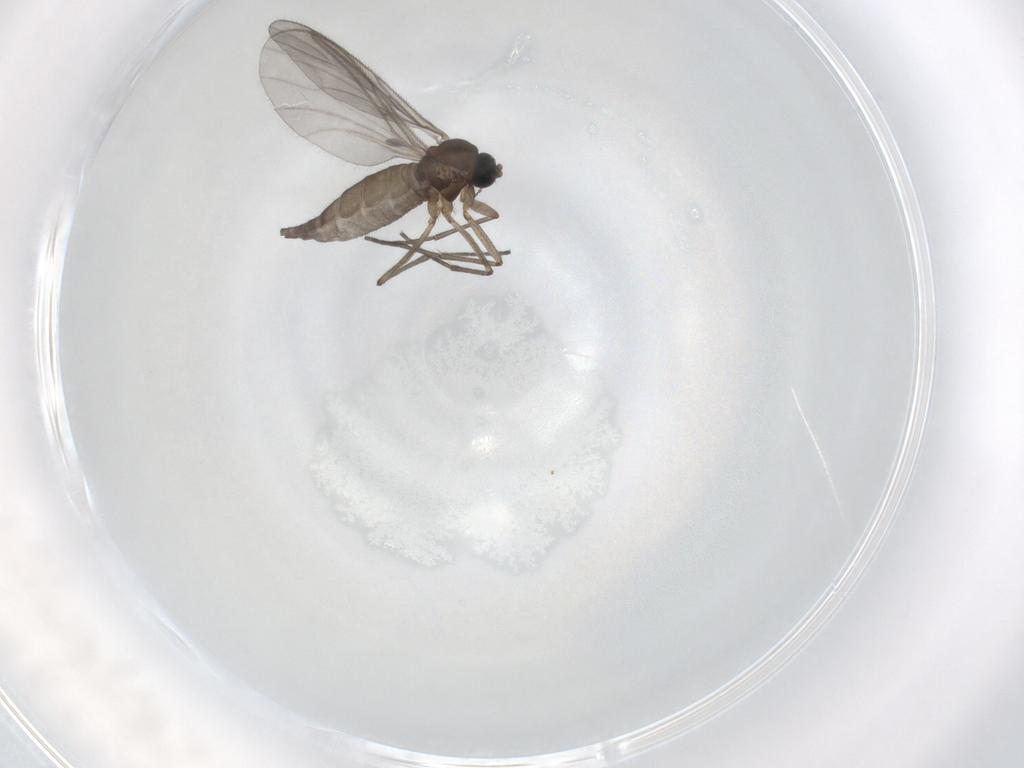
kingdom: Animalia
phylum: Arthropoda
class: Insecta
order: Diptera
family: Sciaridae
